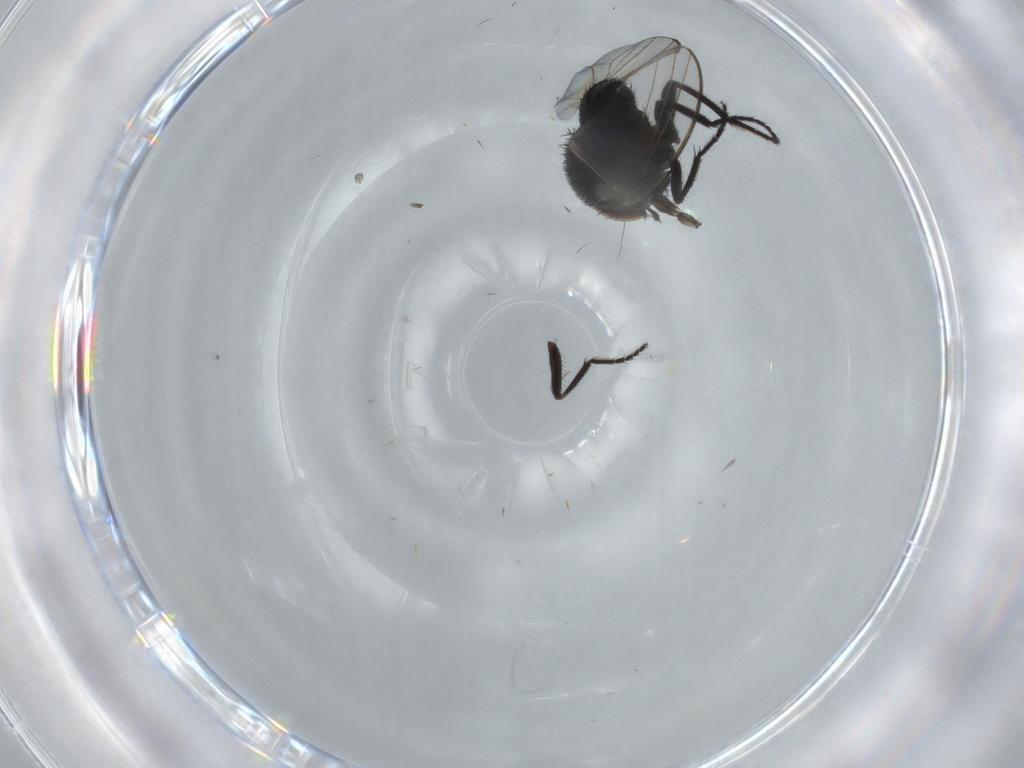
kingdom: Animalia
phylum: Arthropoda
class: Insecta
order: Diptera
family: Milichiidae
